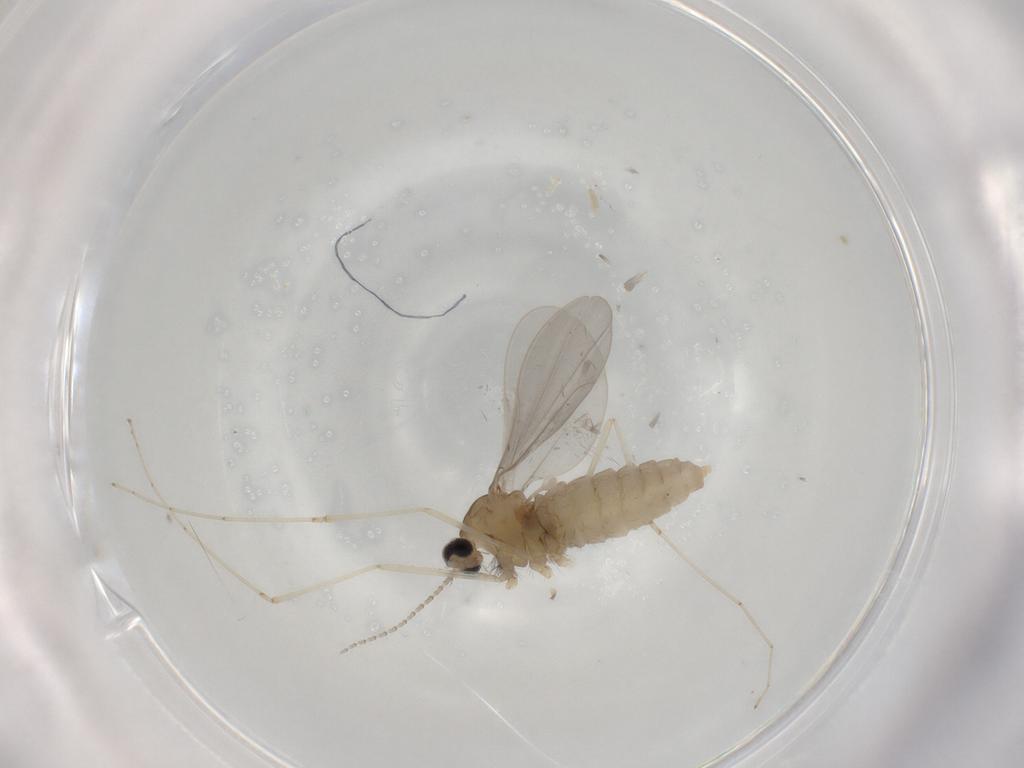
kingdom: Animalia
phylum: Arthropoda
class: Insecta
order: Diptera
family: Cecidomyiidae
